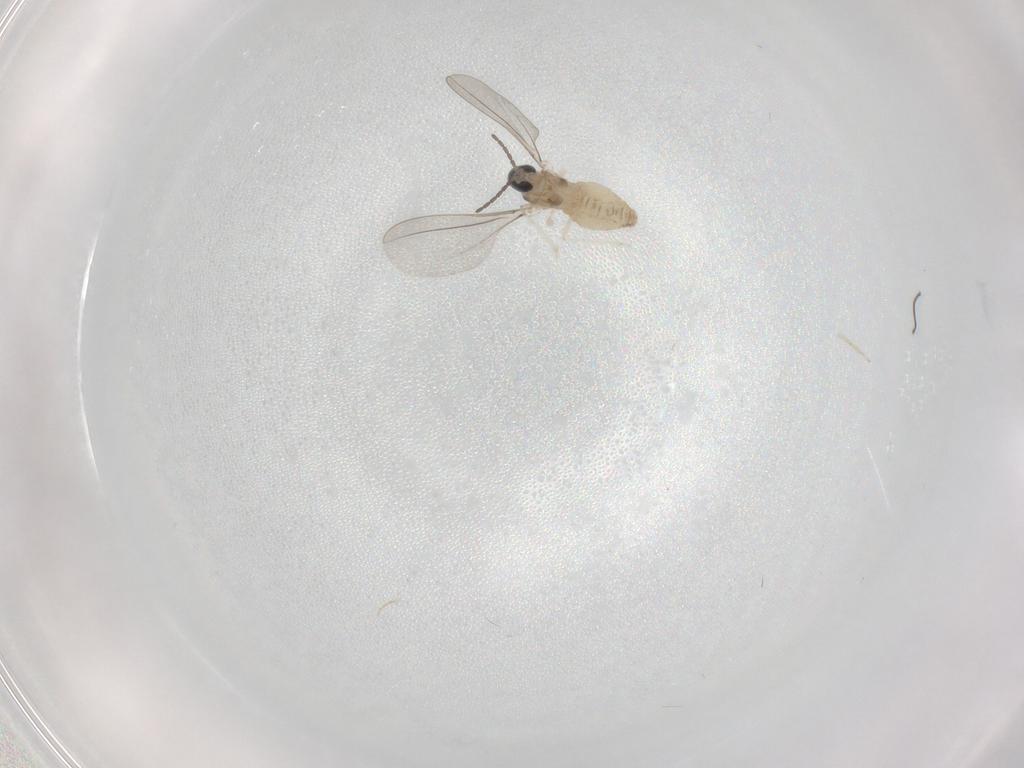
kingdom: Animalia
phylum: Arthropoda
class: Insecta
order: Diptera
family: Cecidomyiidae
